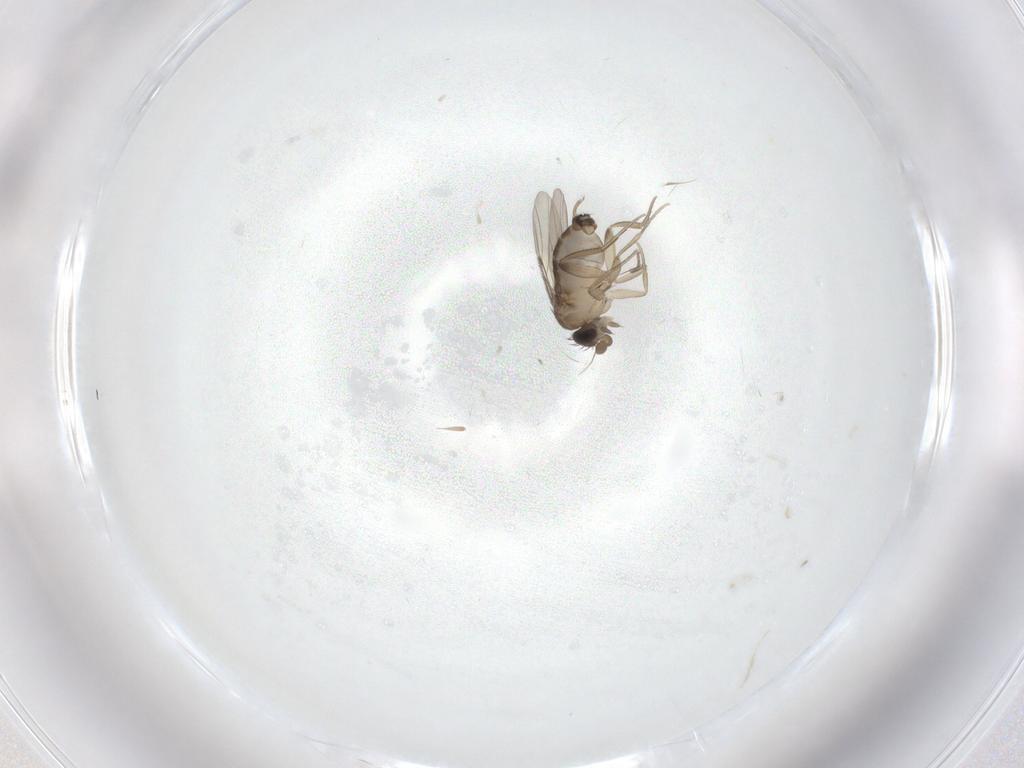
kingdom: Animalia
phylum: Arthropoda
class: Insecta
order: Diptera
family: Phoridae
